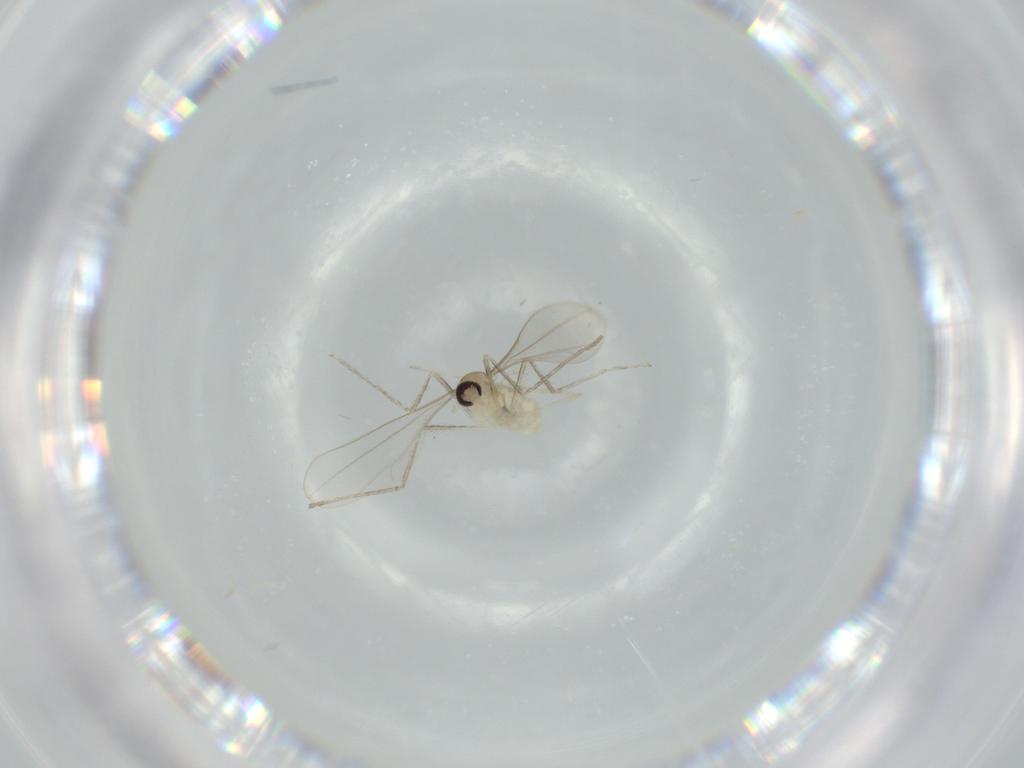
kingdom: Animalia
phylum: Arthropoda
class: Insecta
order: Diptera
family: Cecidomyiidae
